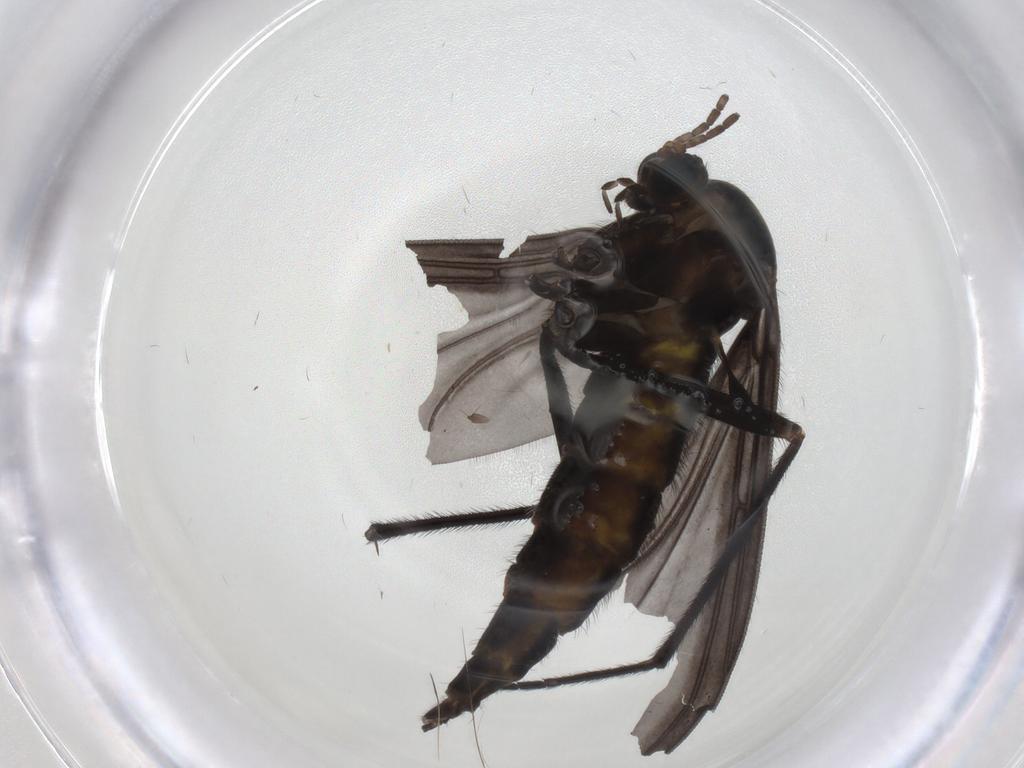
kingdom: Animalia
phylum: Arthropoda
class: Insecta
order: Diptera
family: Sciaridae
